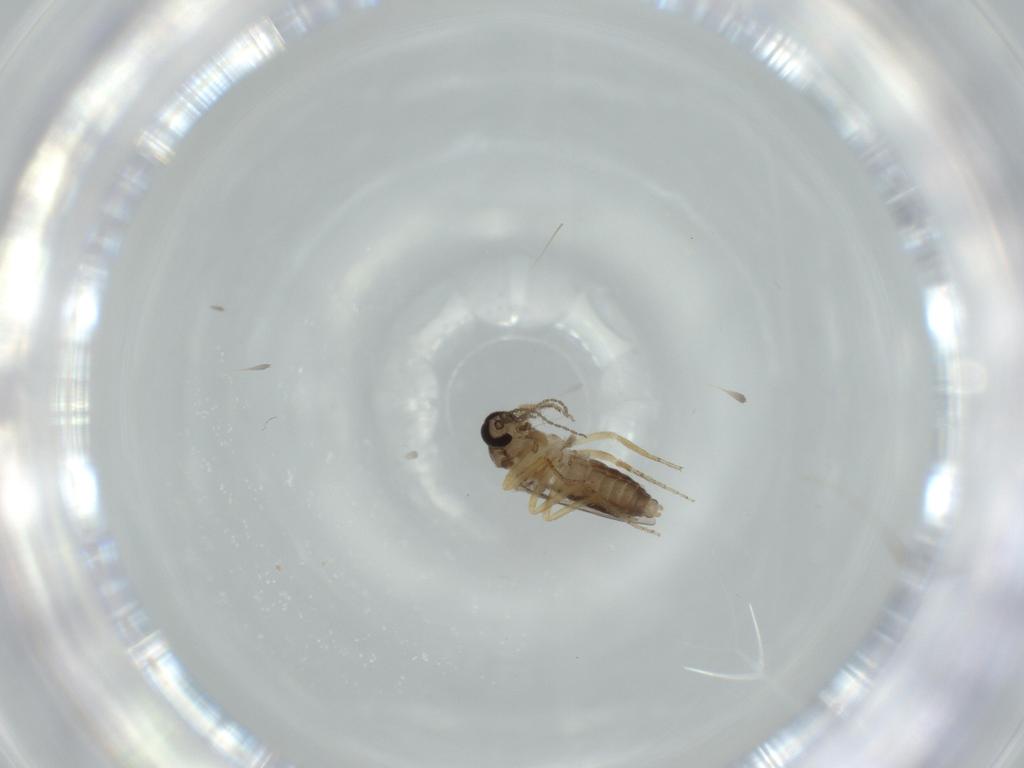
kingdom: Animalia
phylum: Arthropoda
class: Insecta
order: Diptera
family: Ceratopogonidae
